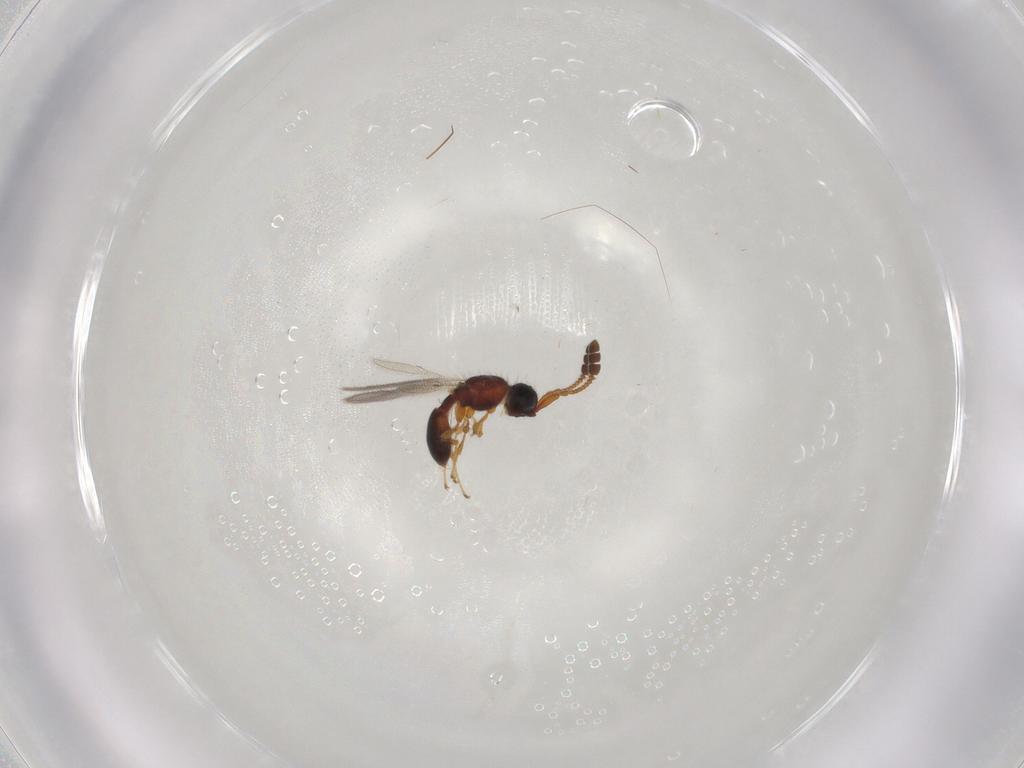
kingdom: Animalia
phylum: Arthropoda
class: Insecta
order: Hymenoptera
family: Diapriidae
